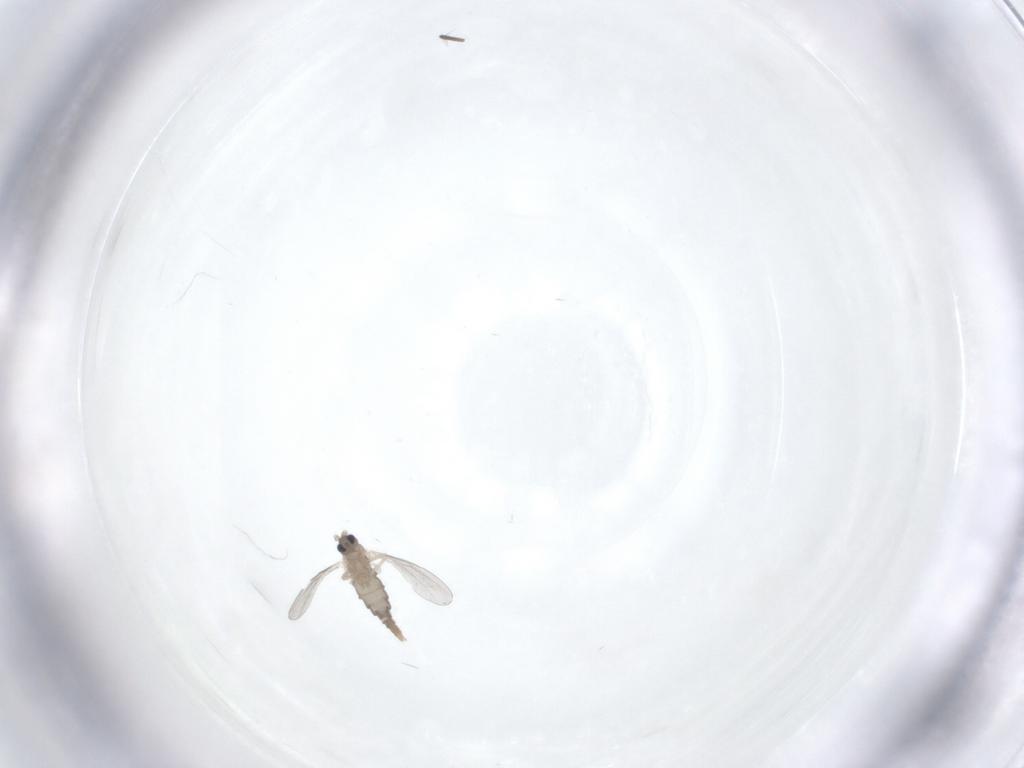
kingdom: Animalia
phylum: Arthropoda
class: Insecta
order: Diptera
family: Cecidomyiidae
